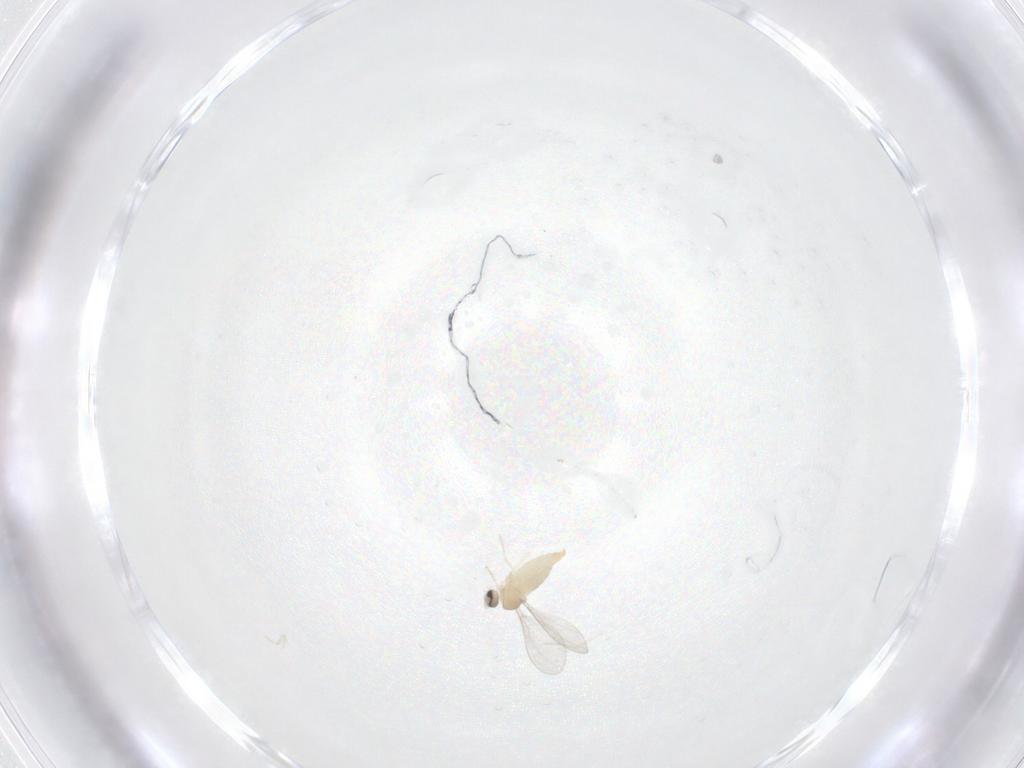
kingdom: Animalia
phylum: Arthropoda
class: Insecta
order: Diptera
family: Cecidomyiidae
